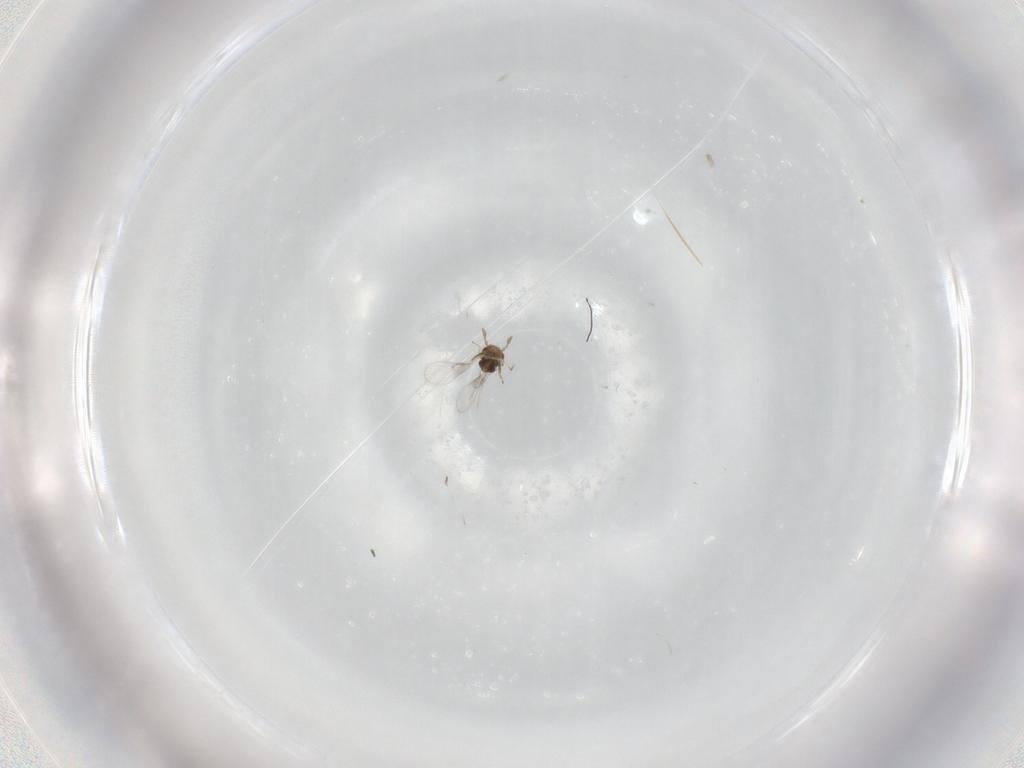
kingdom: Animalia
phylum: Arthropoda
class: Insecta
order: Hymenoptera
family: Trichogrammatidae
